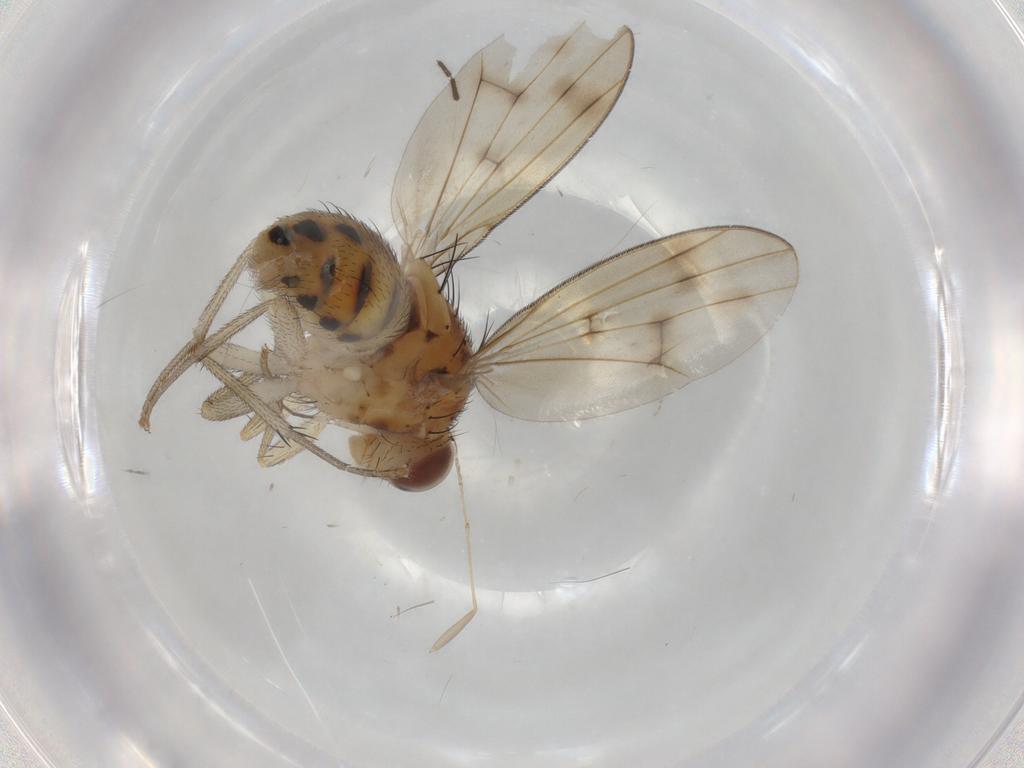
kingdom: Animalia
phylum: Arthropoda
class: Insecta
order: Diptera
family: Psychodidae
